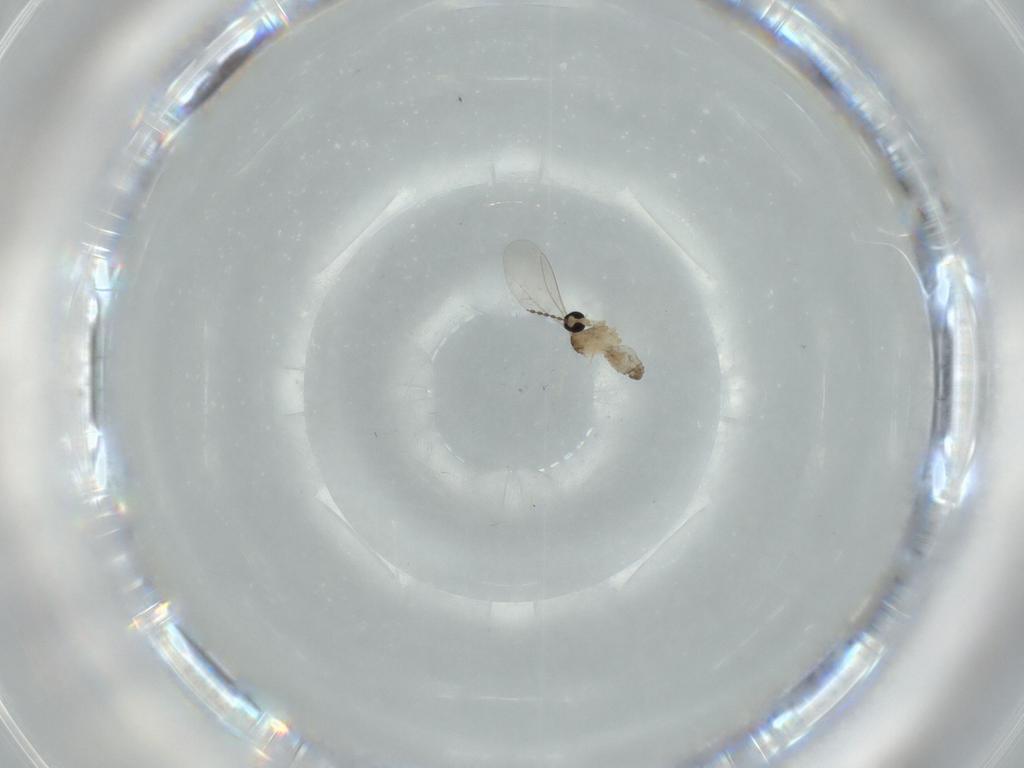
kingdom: Animalia
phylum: Arthropoda
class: Insecta
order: Diptera
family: Cecidomyiidae
